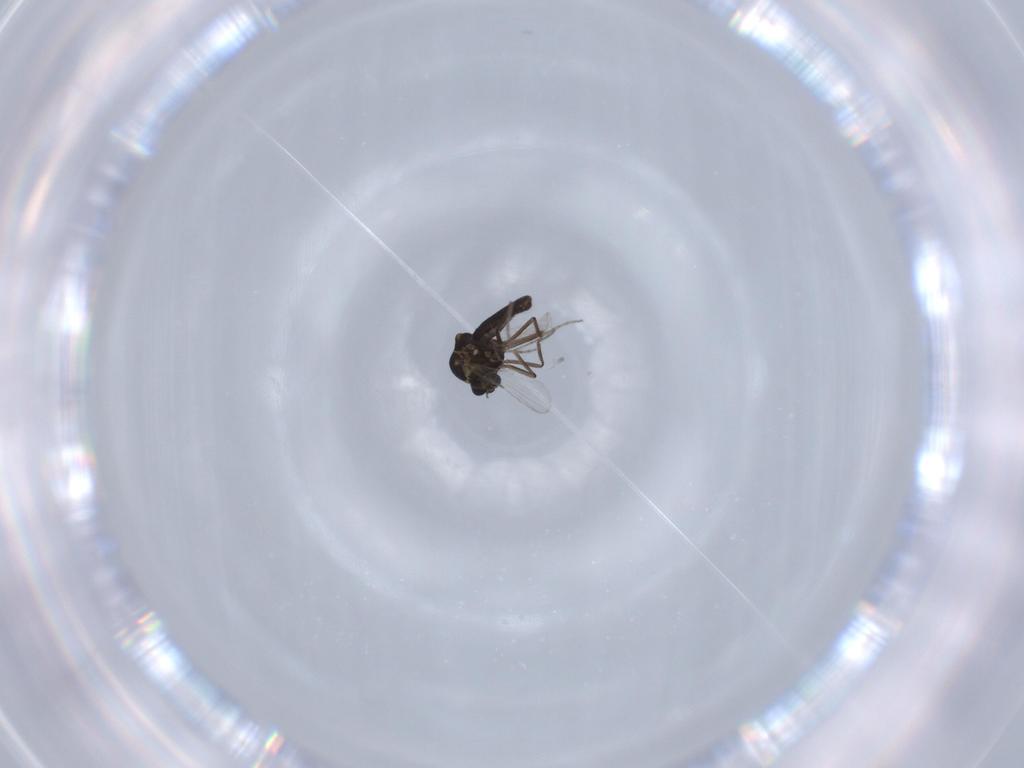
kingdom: Animalia
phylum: Arthropoda
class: Insecta
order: Diptera
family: Ceratopogonidae
